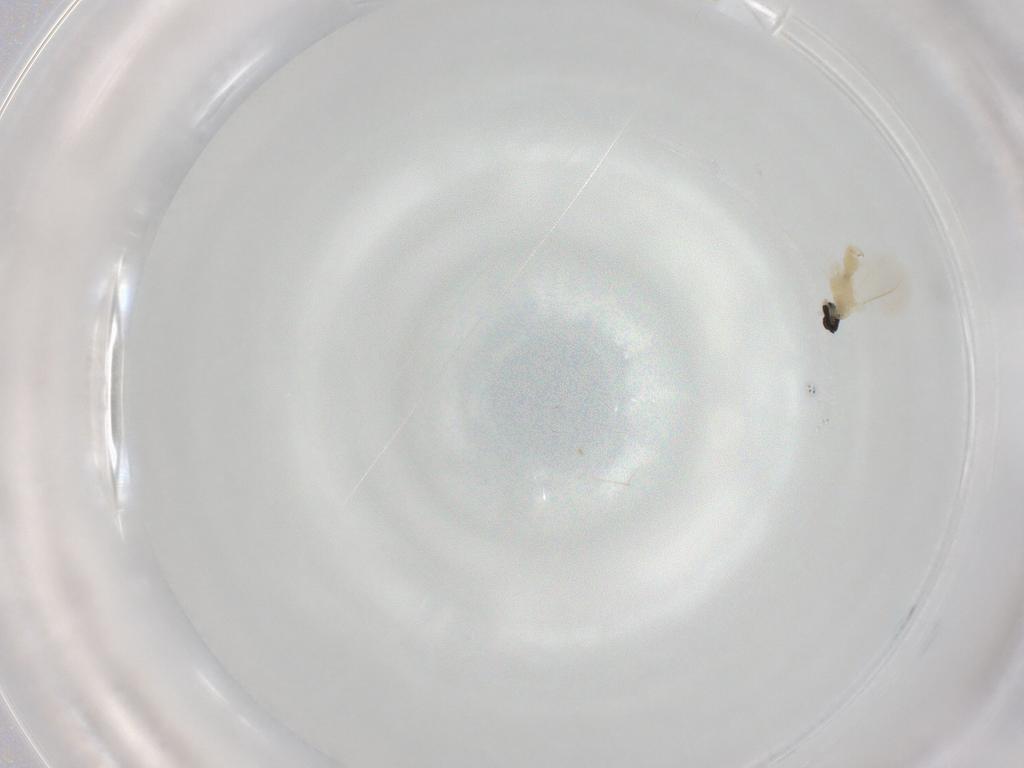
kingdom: Animalia
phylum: Arthropoda
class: Insecta
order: Diptera
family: Cecidomyiidae
